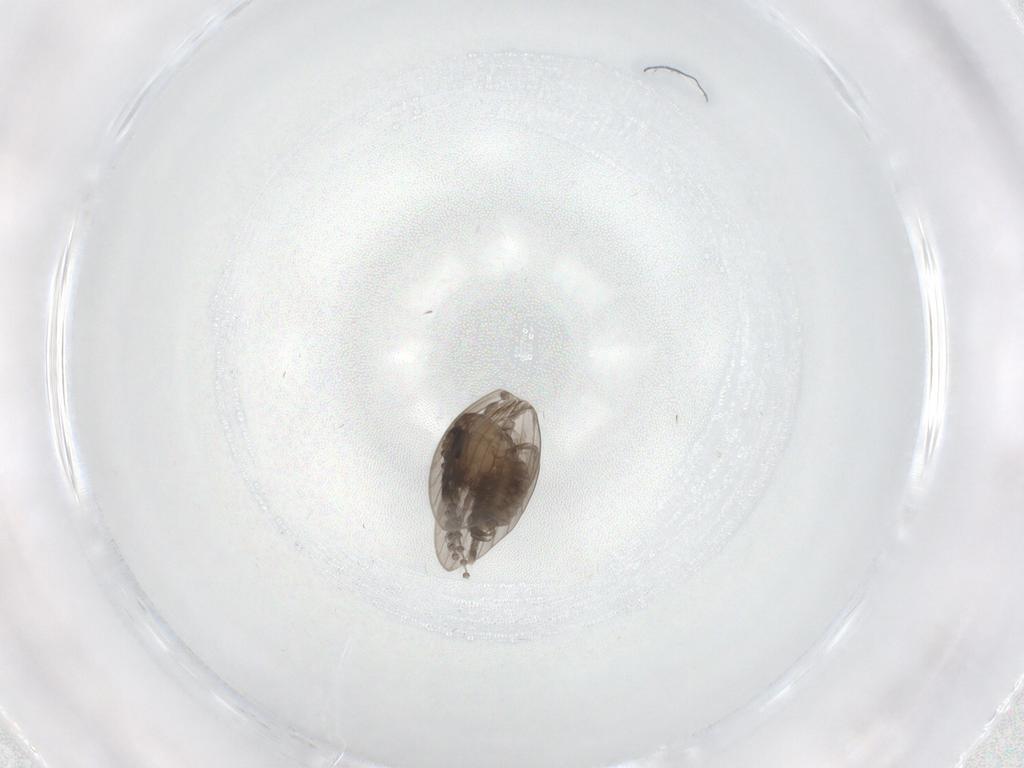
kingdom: Animalia
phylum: Arthropoda
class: Insecta
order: Diptera
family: Psychodidae
